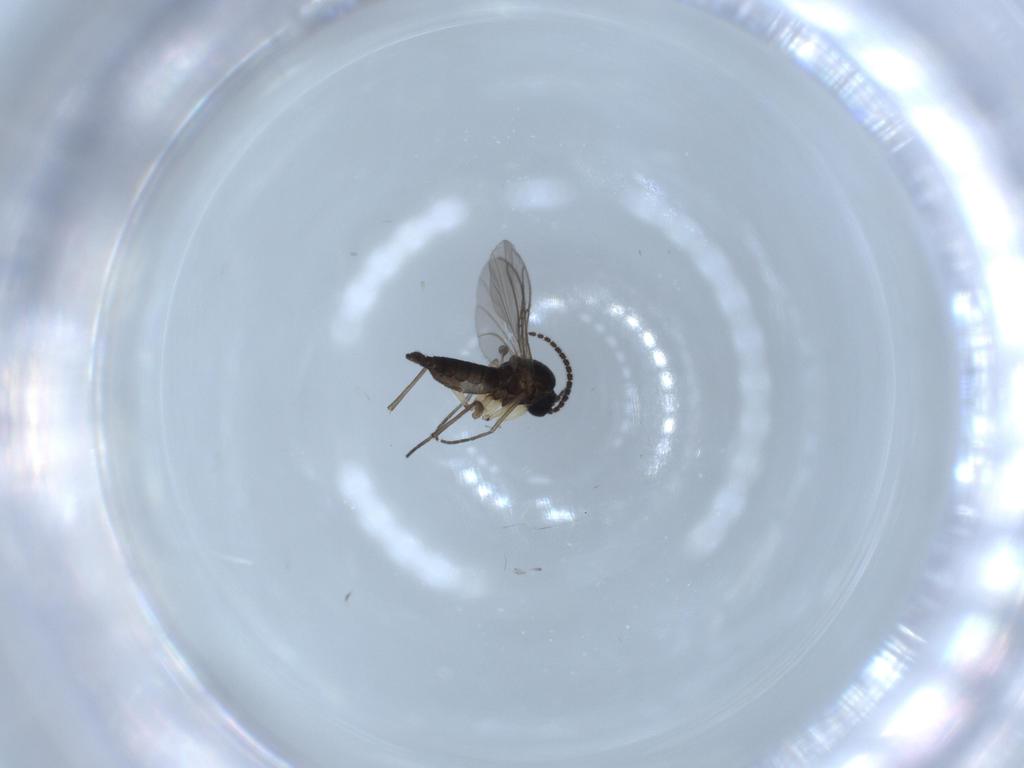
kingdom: Animalia
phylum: Arthropoda
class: Insecta
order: Diptera
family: Sciaridae
